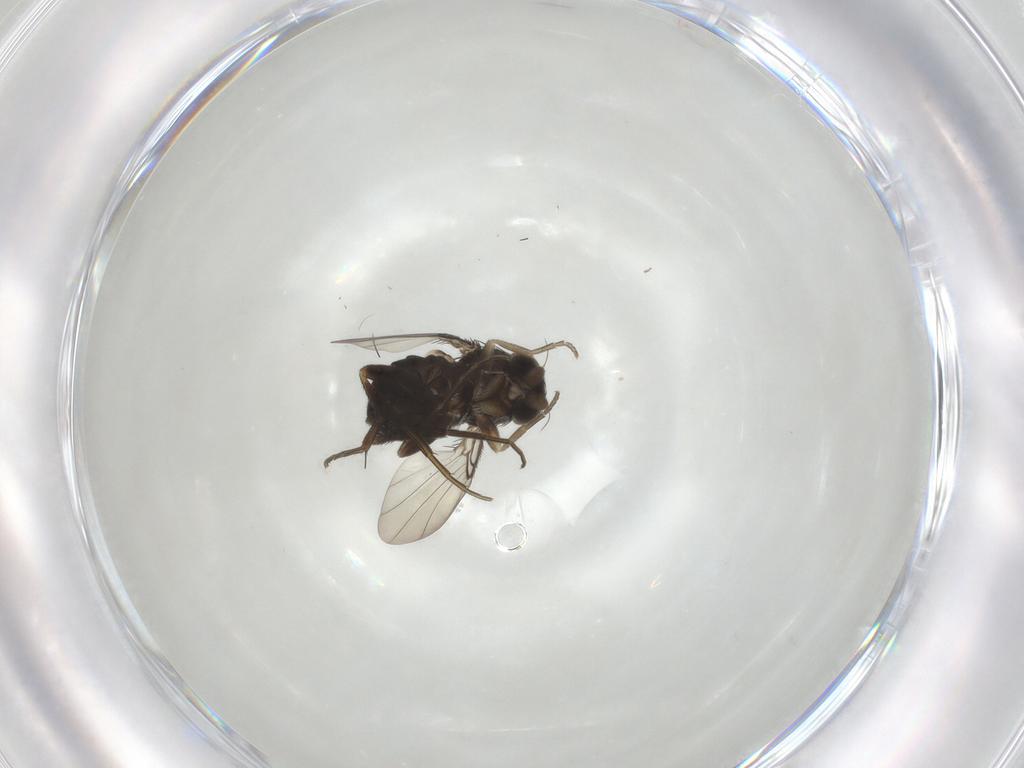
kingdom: Animalia
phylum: Arthropoda
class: Insecta
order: Diptera
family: Phoridae
